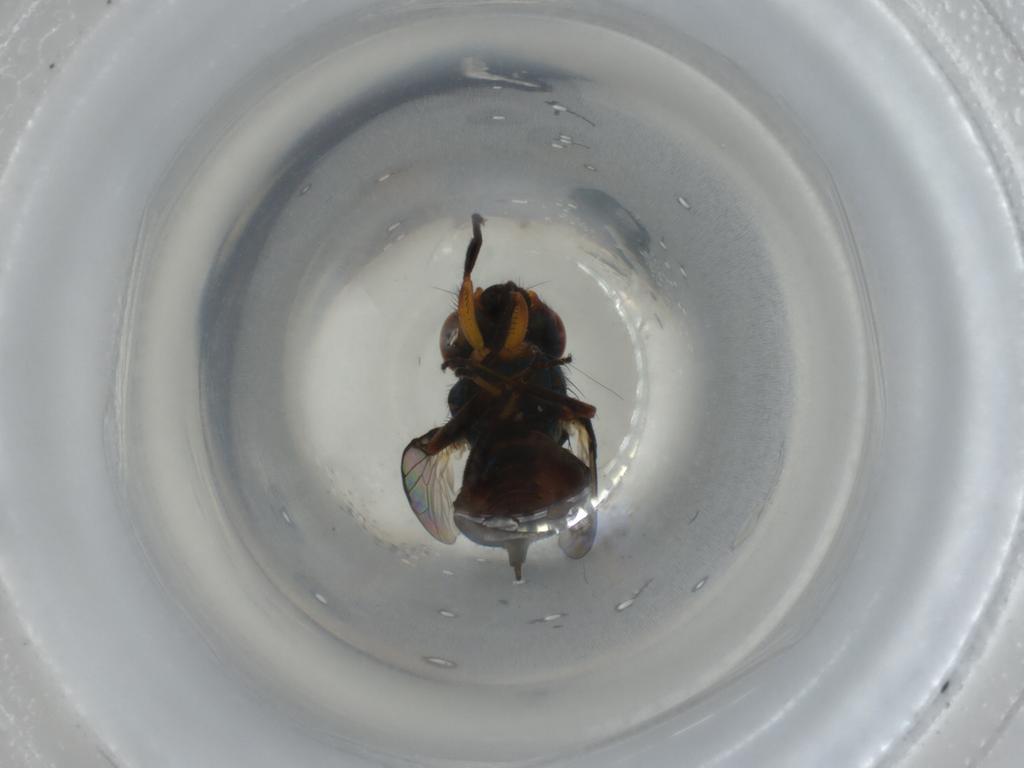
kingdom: Animalia
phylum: Arthropoda
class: Insecta
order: Diptera
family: Ulidiidae
